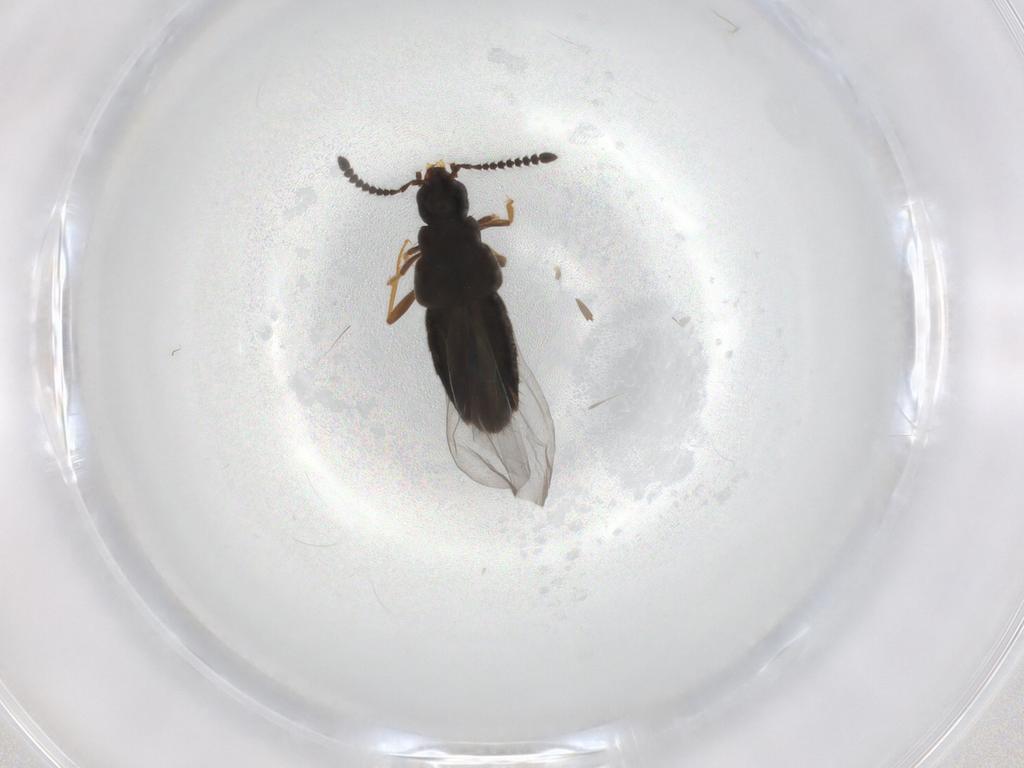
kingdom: Animalia
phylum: Arthropoda
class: Insecta
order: Coleoptera
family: Staphylinidae
